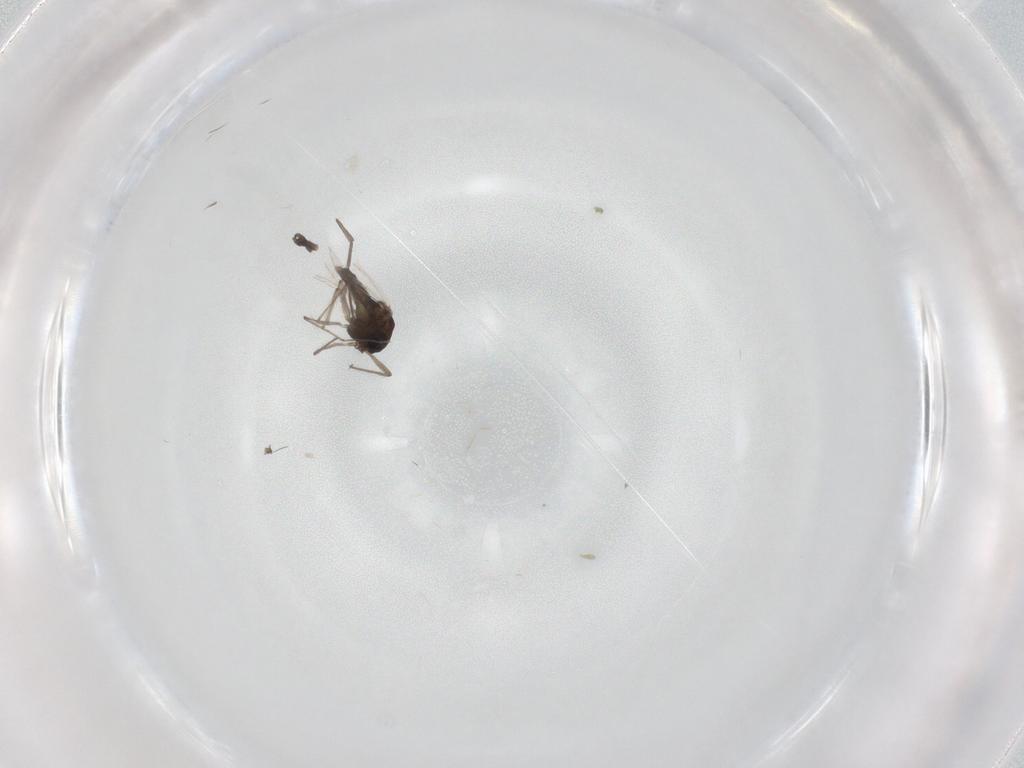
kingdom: Animalia
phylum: Arthropoda
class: Insecta
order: Diptera
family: Chironomidae
